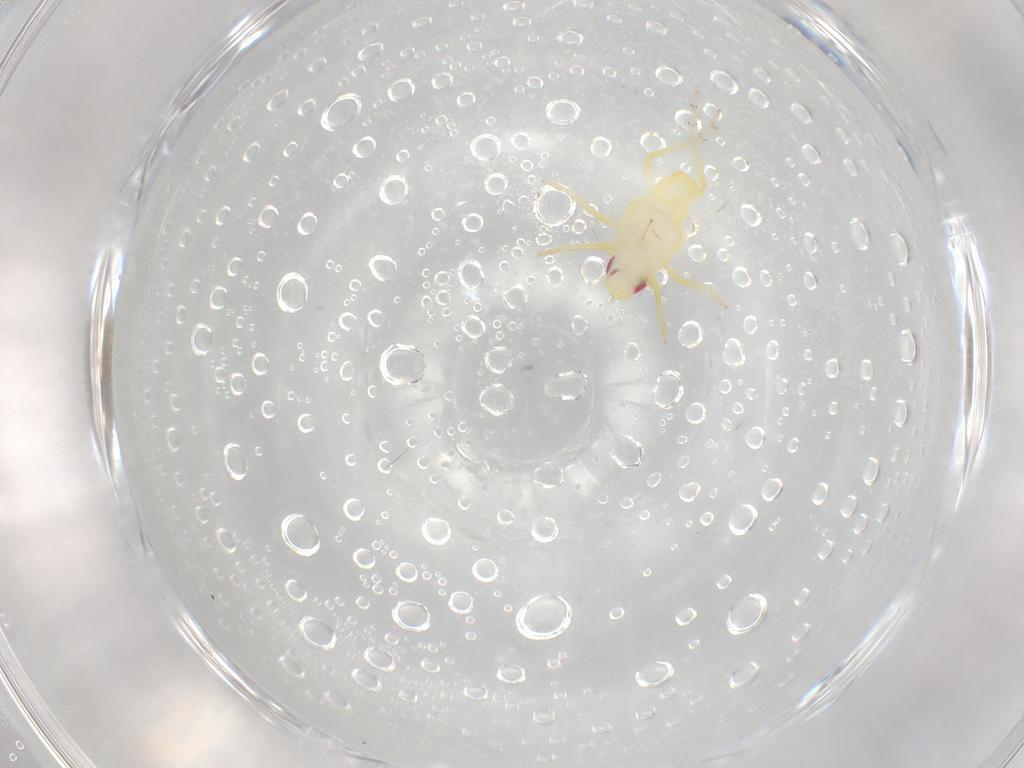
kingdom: Animalia
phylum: Arthropoda
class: Insecta
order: Hemiptera
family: Fulgoroidea_incertae_sedis
